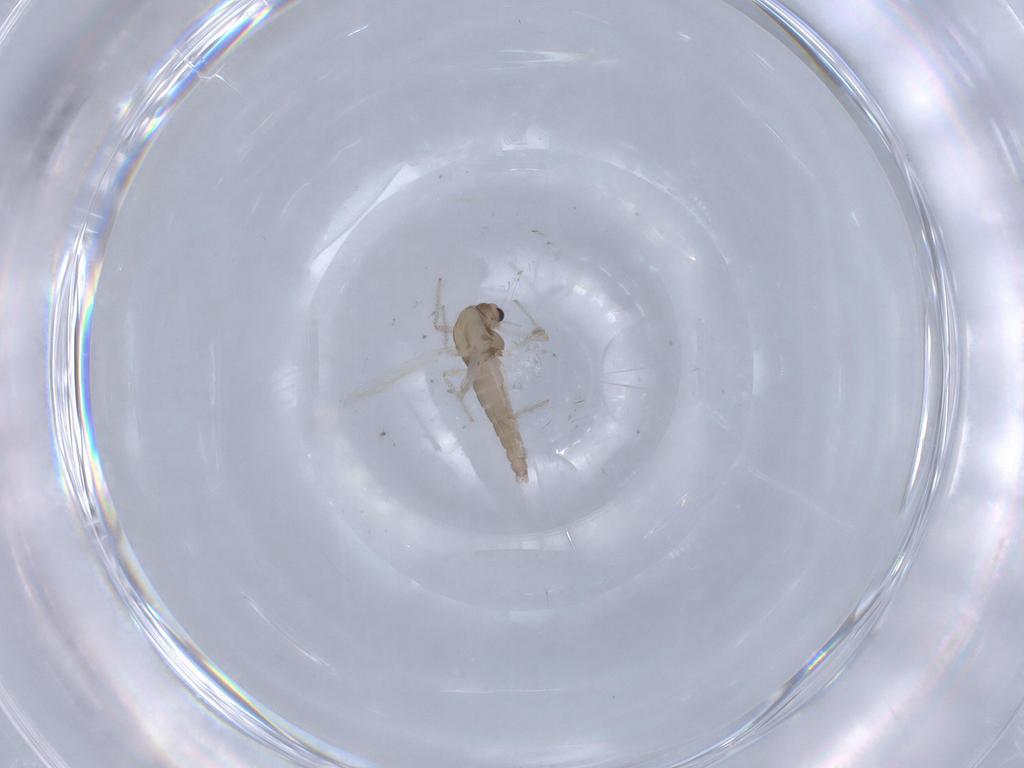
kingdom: Animalia
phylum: Arthropoda
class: Insecta
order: Diptera
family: Chironomidae
